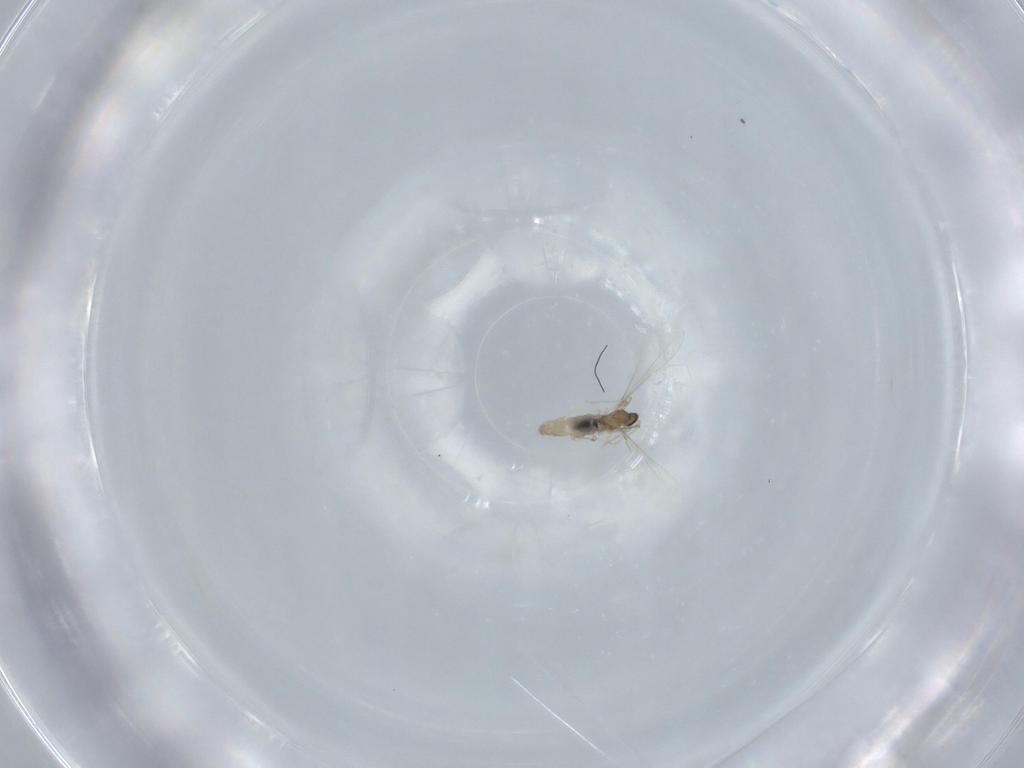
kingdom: Animalia
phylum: Arthropoda
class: Insecta
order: Diptera
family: Cecidomyiidae
